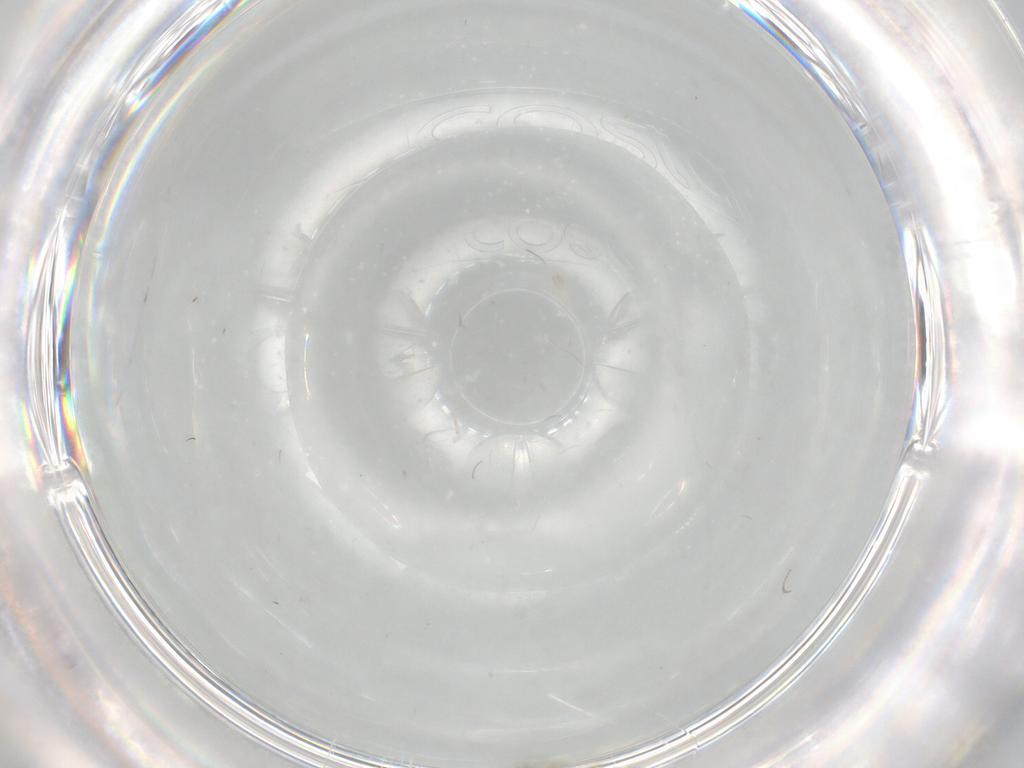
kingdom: Animalia
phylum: Arthropoda
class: Insecta
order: Diptera
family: Cecidomyiidae
